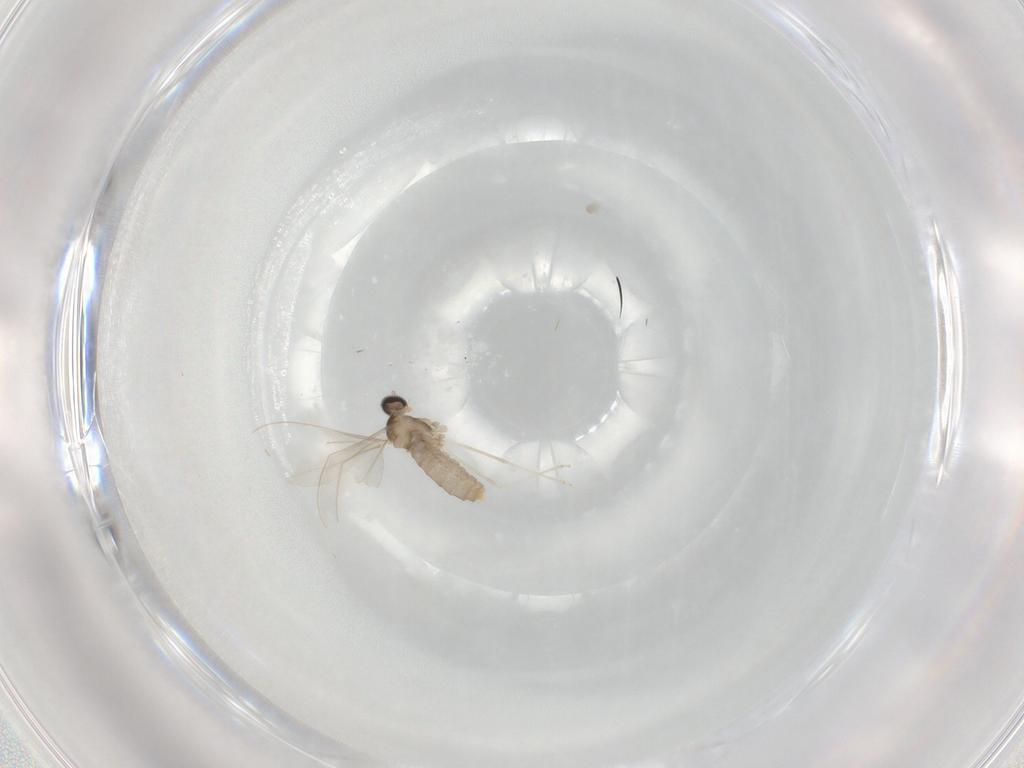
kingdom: Animalia
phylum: Arthropoda
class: Insecta
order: Diptera
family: Cecidomyiidae
